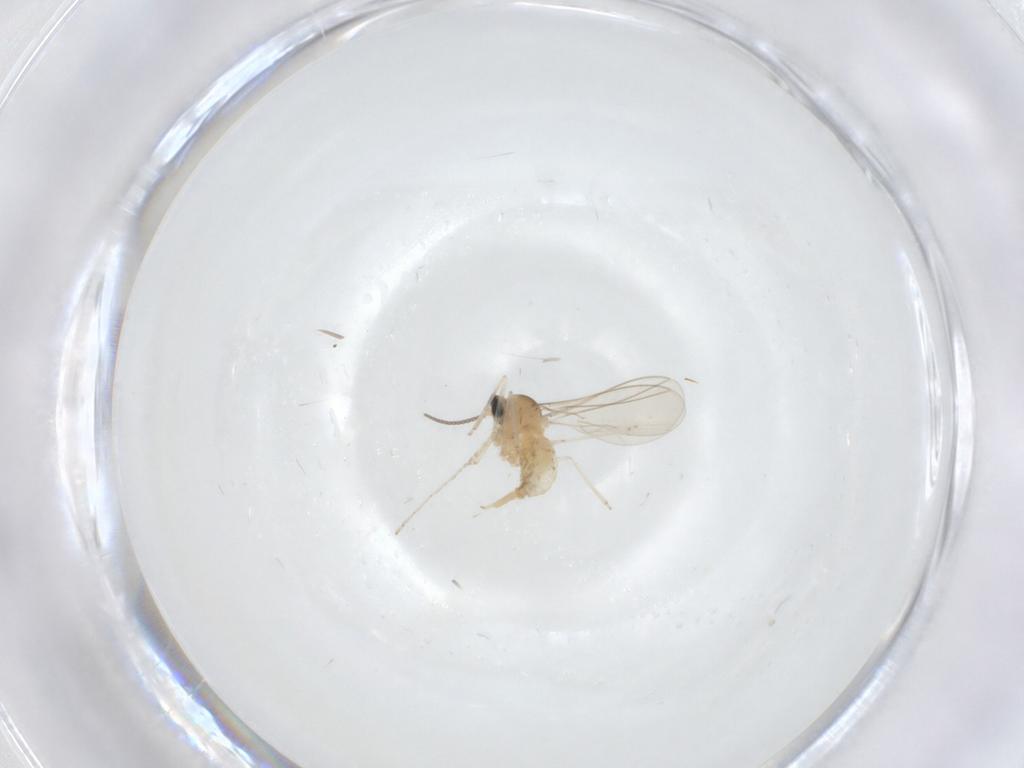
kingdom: Animalia
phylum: Arthropoda
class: Insecta
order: Diptera
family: Cecidomyiidae
